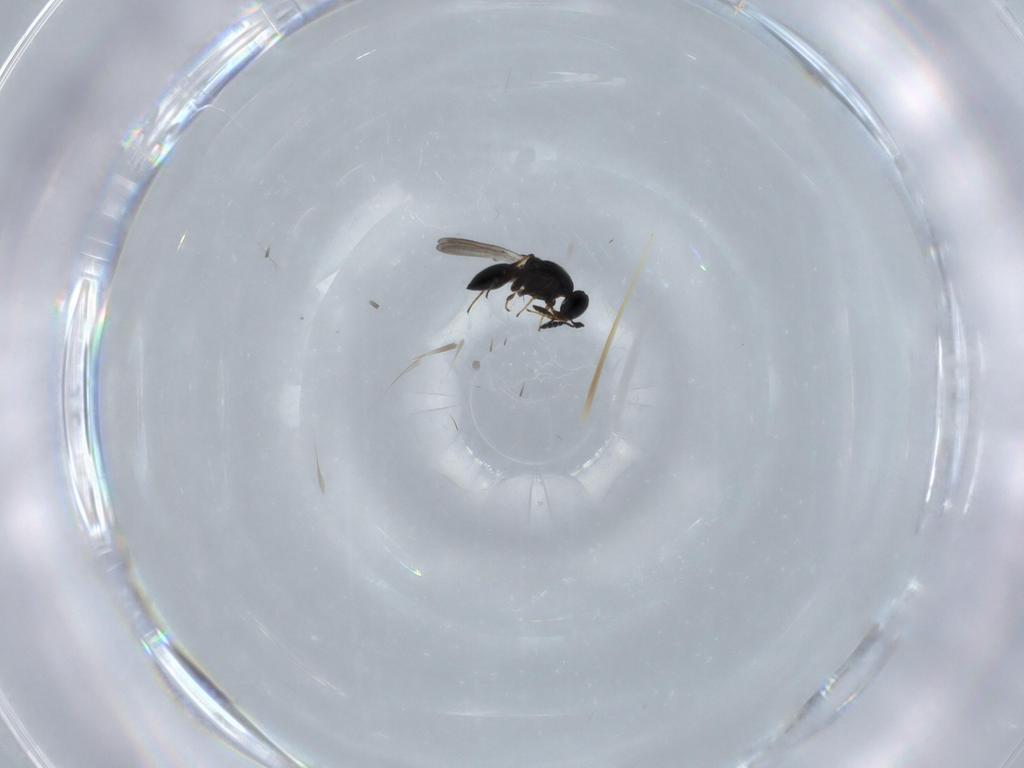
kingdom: Animalia
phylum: Arthropoda
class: Insecta
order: Hymenoptera
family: Platygastridae
